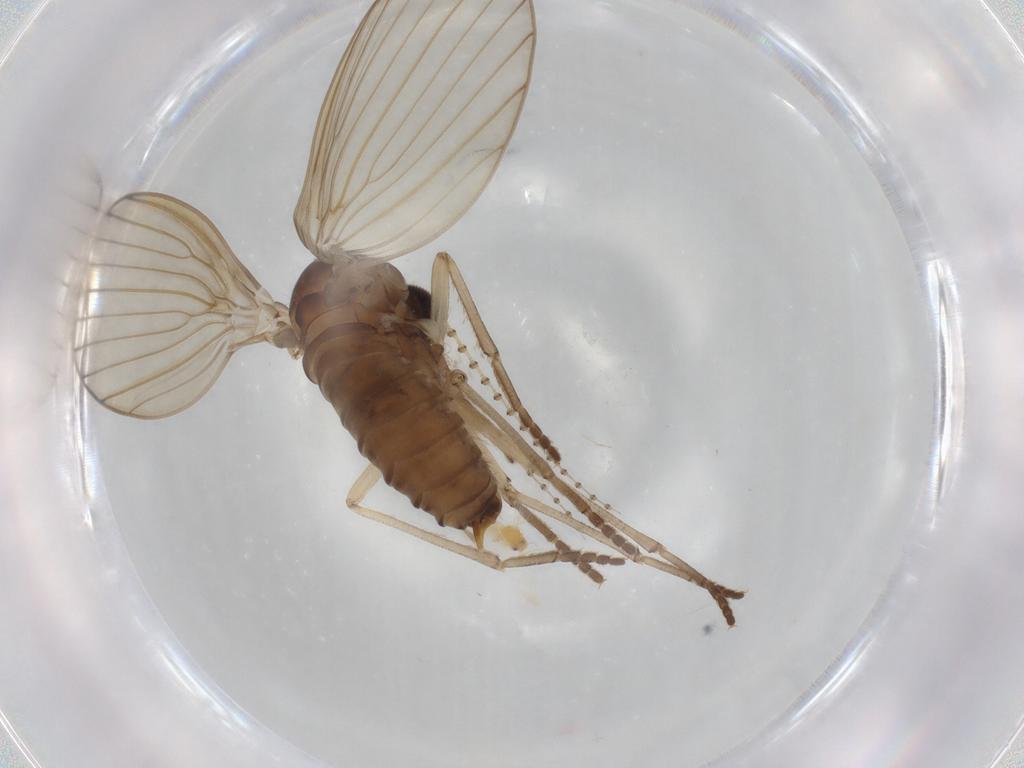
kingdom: Animalia
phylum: Arthropoda
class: Insecta
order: Diptera
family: Psychodidae
